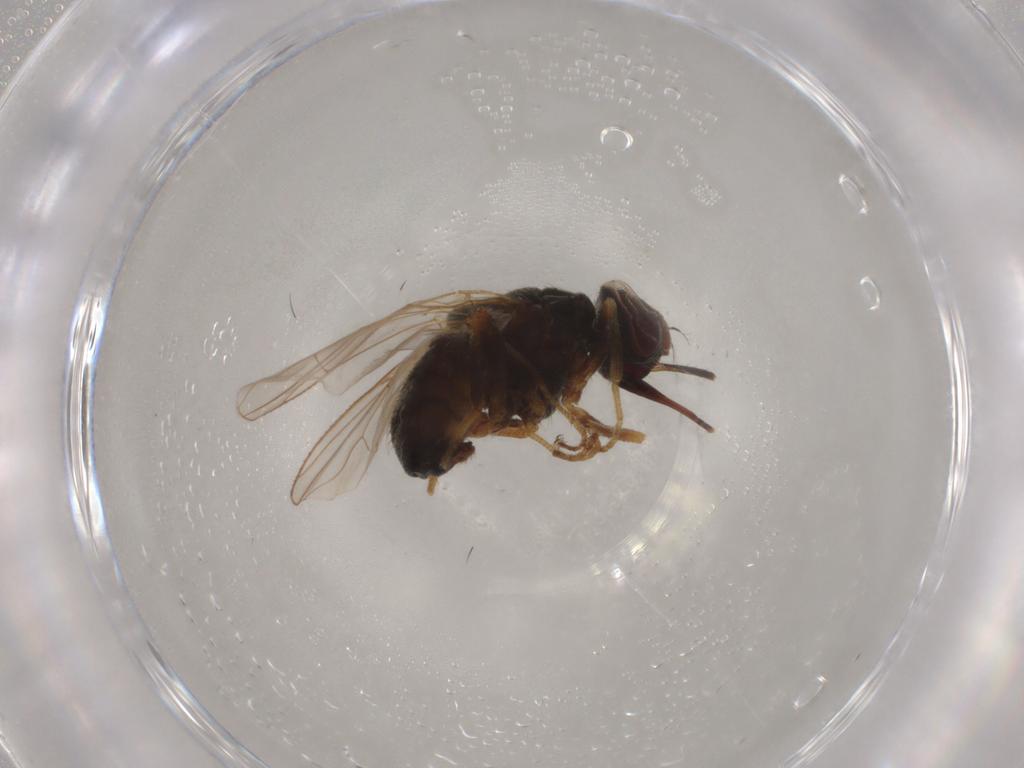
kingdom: Animalia
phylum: Arthropoda
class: Insecta
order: Diptera
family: Muscidae
